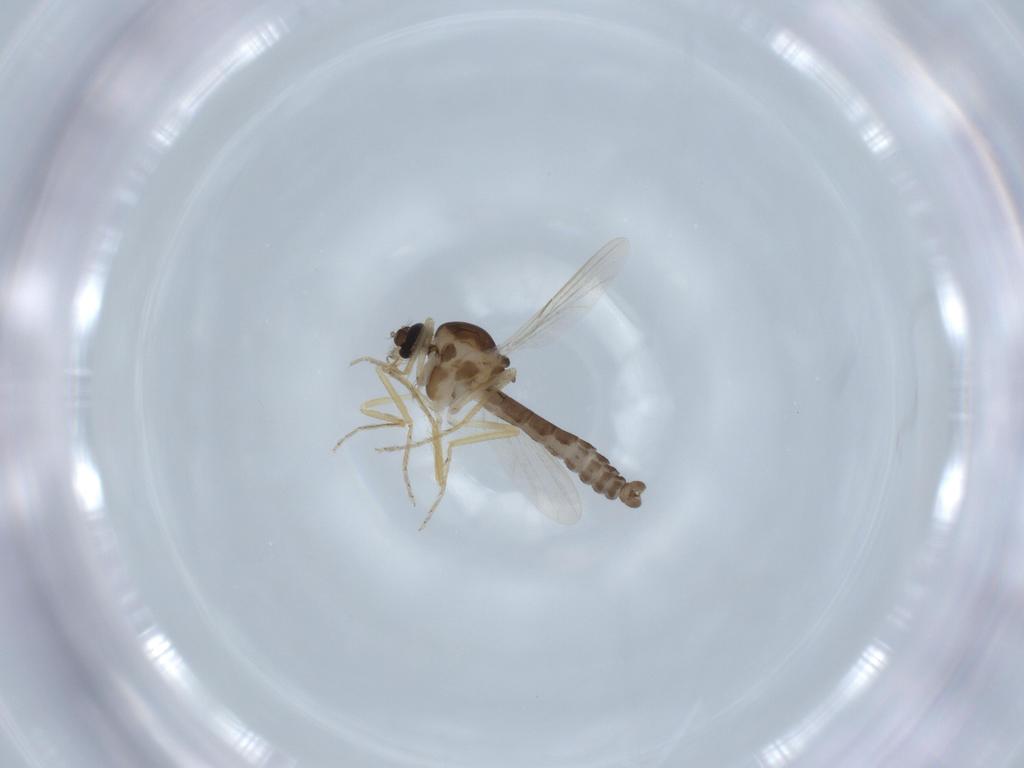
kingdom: Animalia
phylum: Arthropoda
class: Insecta
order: Diptera
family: Ceratopogonidae
